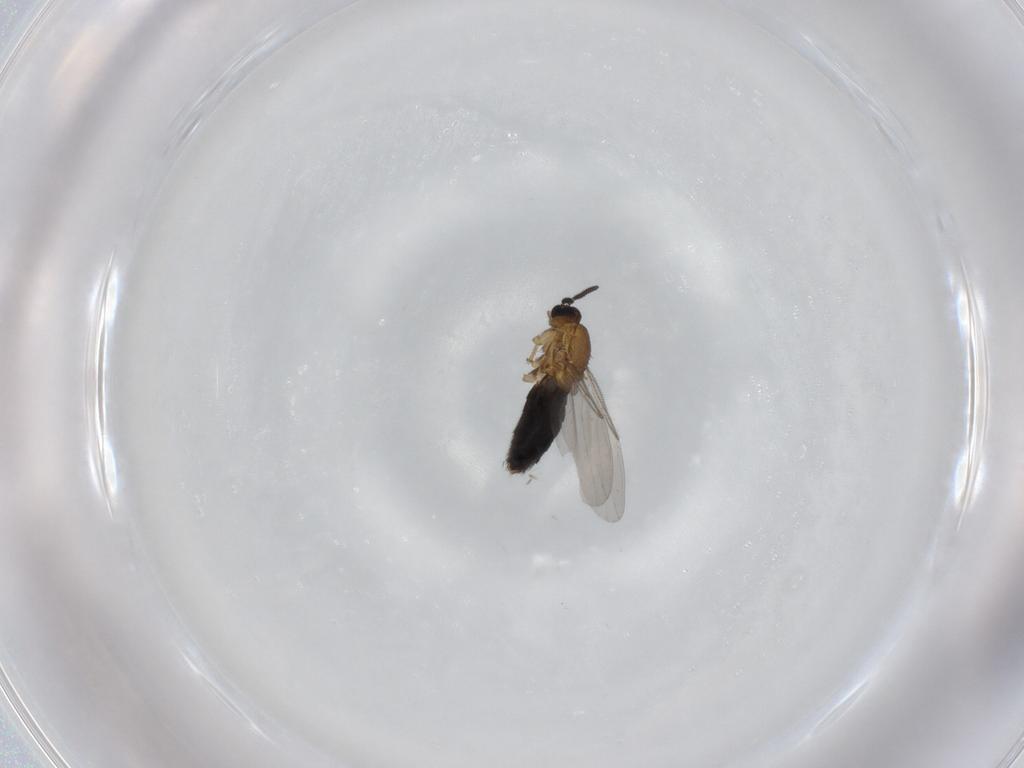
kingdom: Animalia
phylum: Arthropoda
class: Insecta
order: Diptera
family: Scatopsidae
